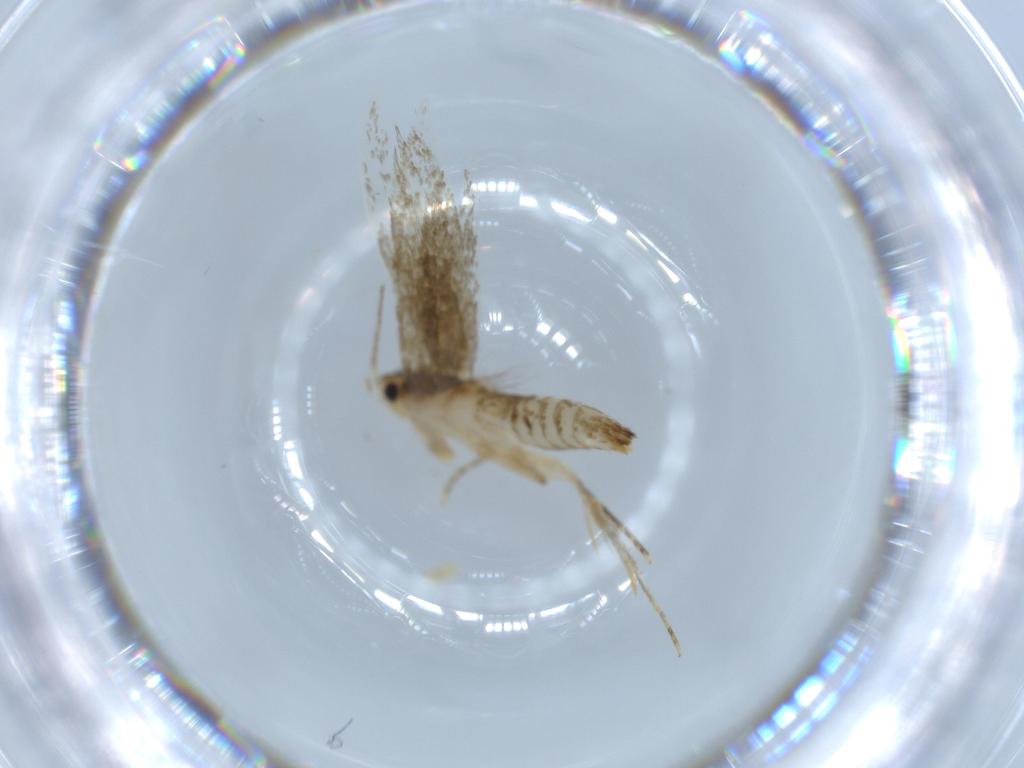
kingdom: Animalia
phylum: Arthropoda
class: Insecta
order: Lepidoptera
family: Tineidae
